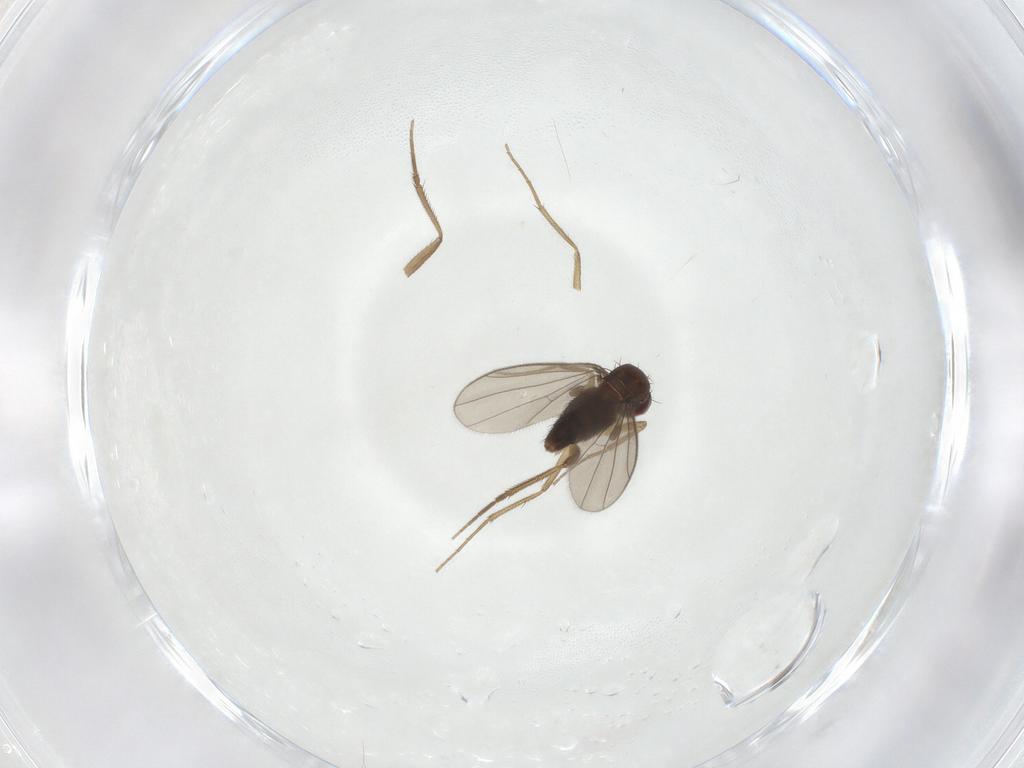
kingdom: Animalia
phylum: Arthropoda
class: Insecta
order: Diptera
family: Dolichopodidae
